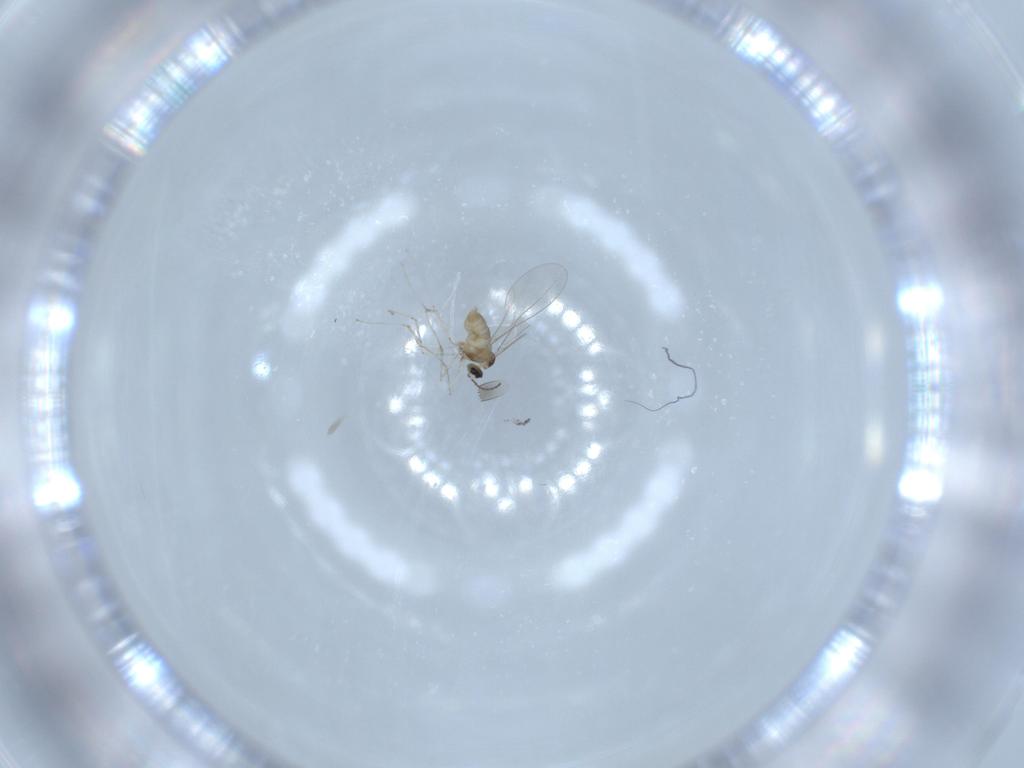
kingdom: Animalia
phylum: Arthropoda
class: Insecta
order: Diptera
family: Cecidomyiidae
